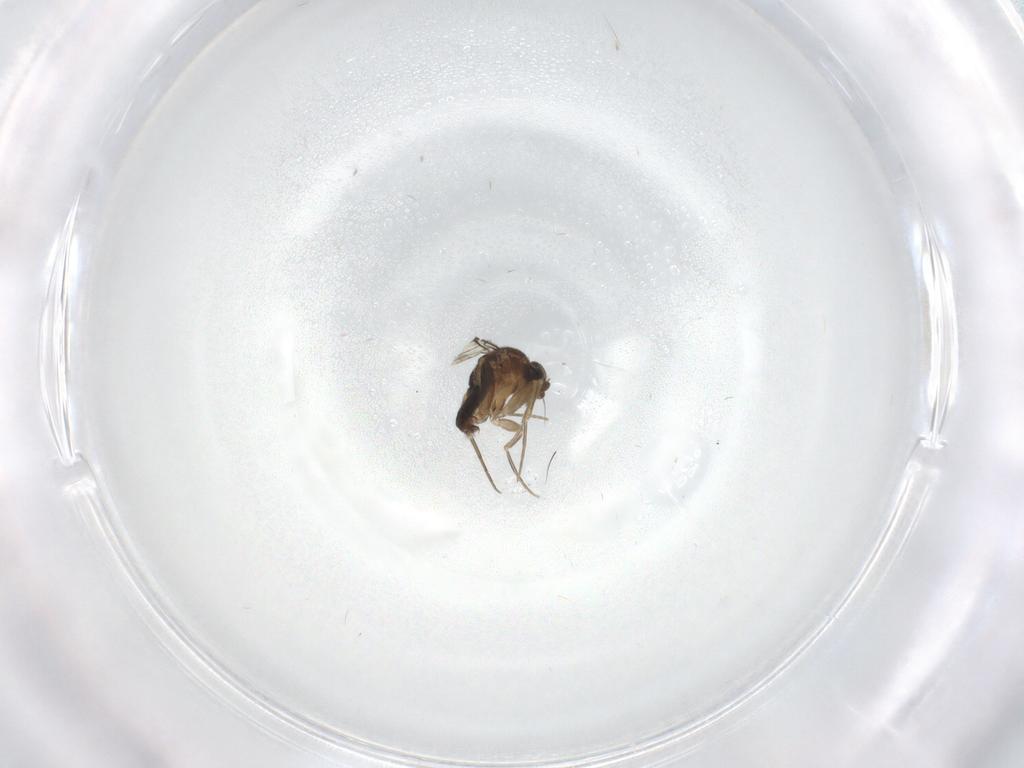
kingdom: Animalia
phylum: Arthropoda
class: Insecta
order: Diptera
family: Phoridae
